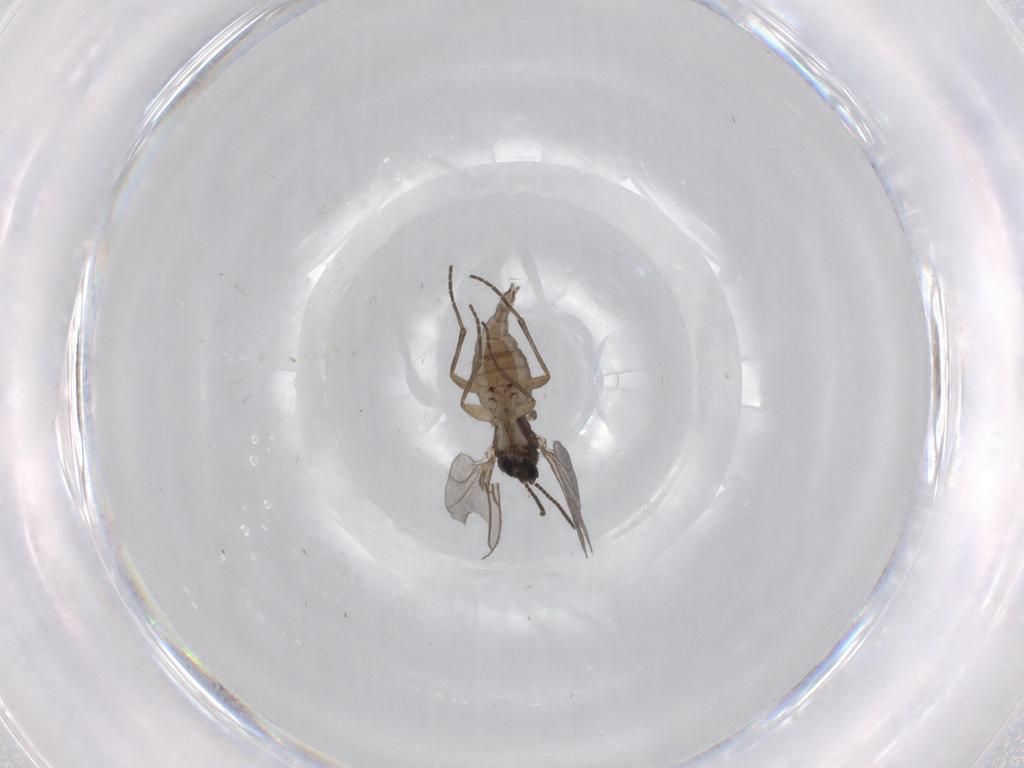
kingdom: Animalia
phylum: Arthropoda
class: Insecta
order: Diptera
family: Sciaridae
